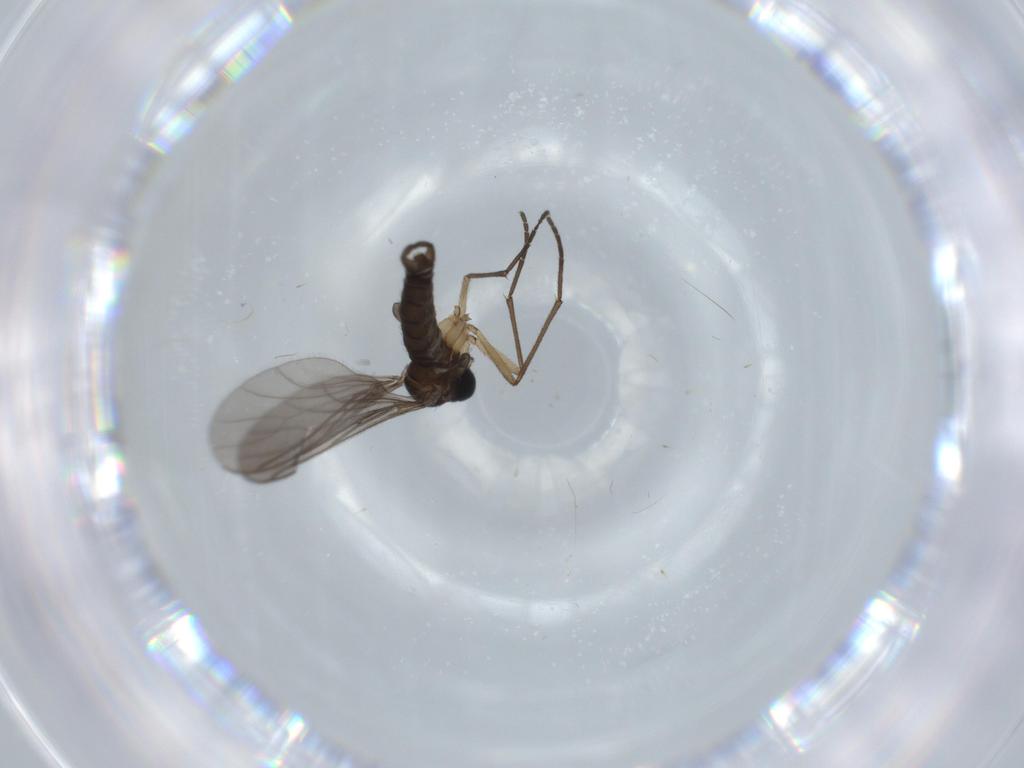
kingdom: Animalia
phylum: Arthropoda
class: Insecta
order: Diptera
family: Sciaridae
